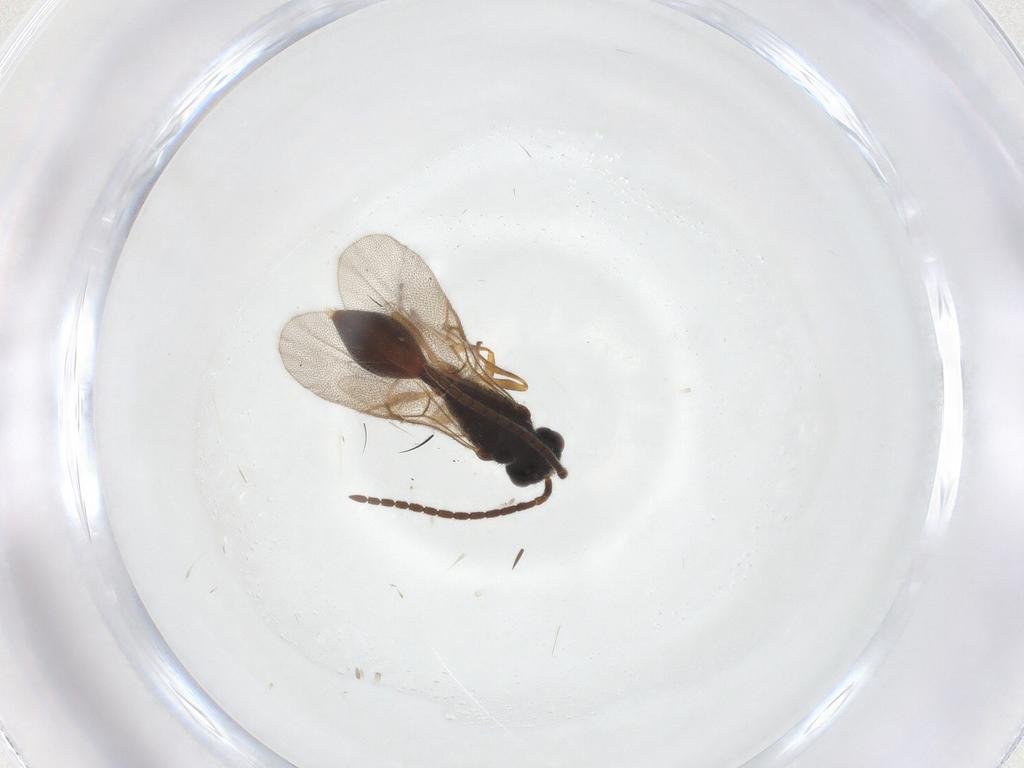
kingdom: Animalia
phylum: Arthropoda
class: Insecta
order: Hymenoptera
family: Diapriidae
